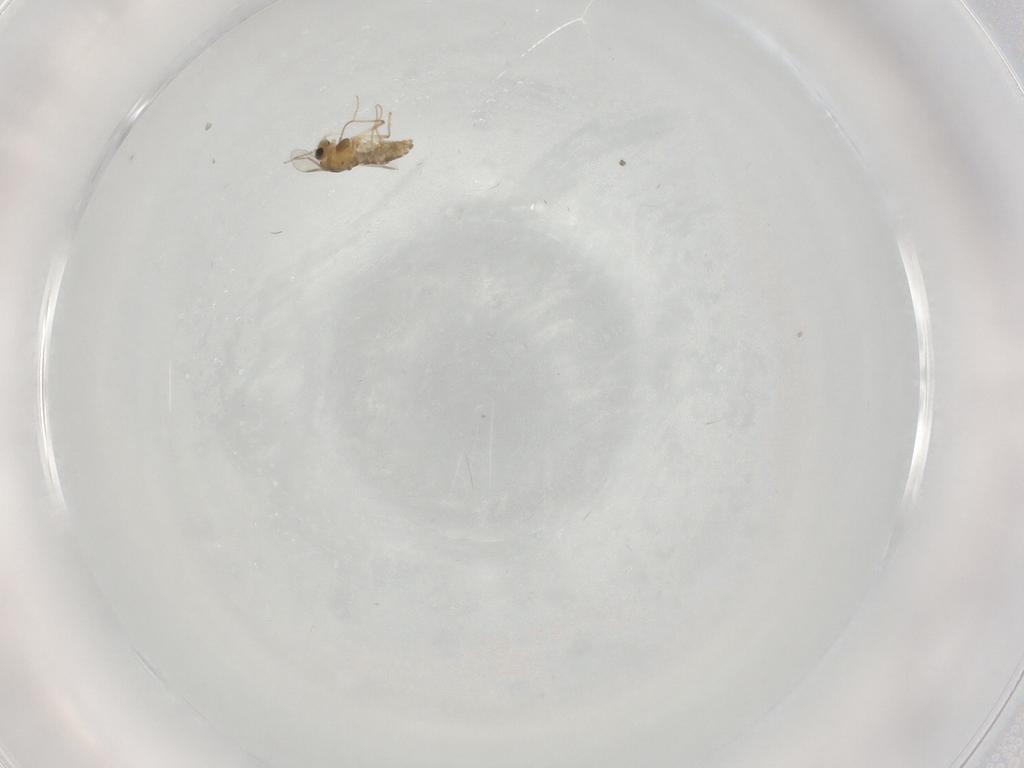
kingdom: Animalia
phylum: Arthropoda
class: Insecta
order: Diptera
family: Chironomidae
